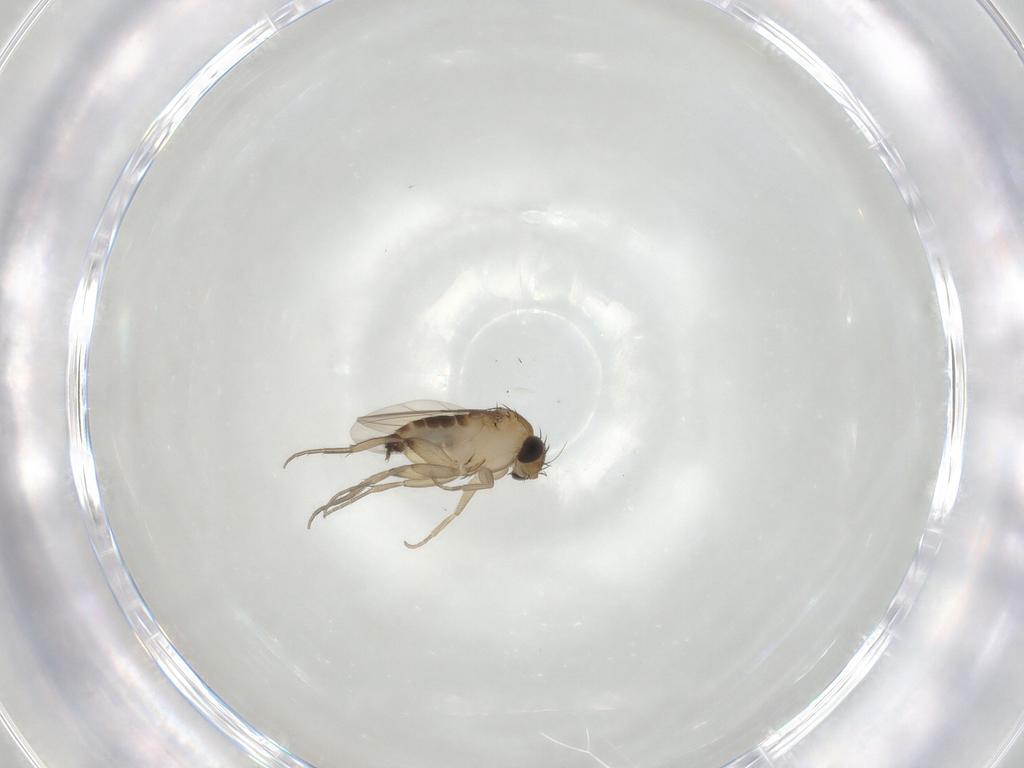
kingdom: Animalia
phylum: Arthropoda
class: Insecta
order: Diptera
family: Phoridae
